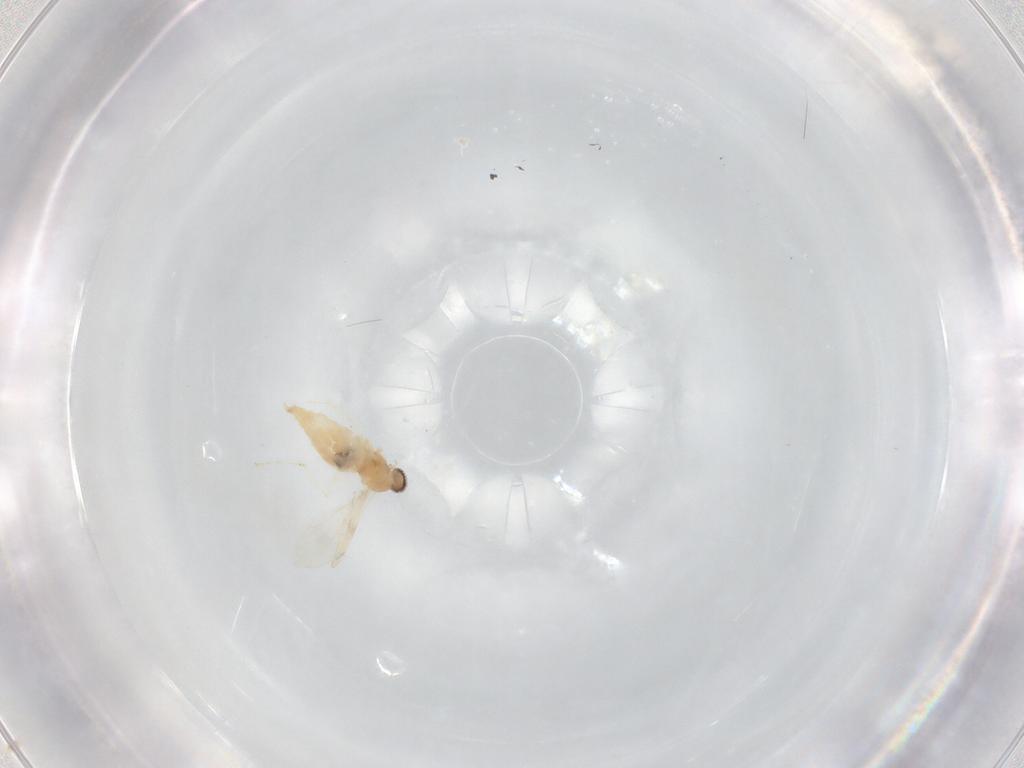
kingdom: Animalia
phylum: Arthropoda
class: Insecta
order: Diptera
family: Cecidomyiidae
